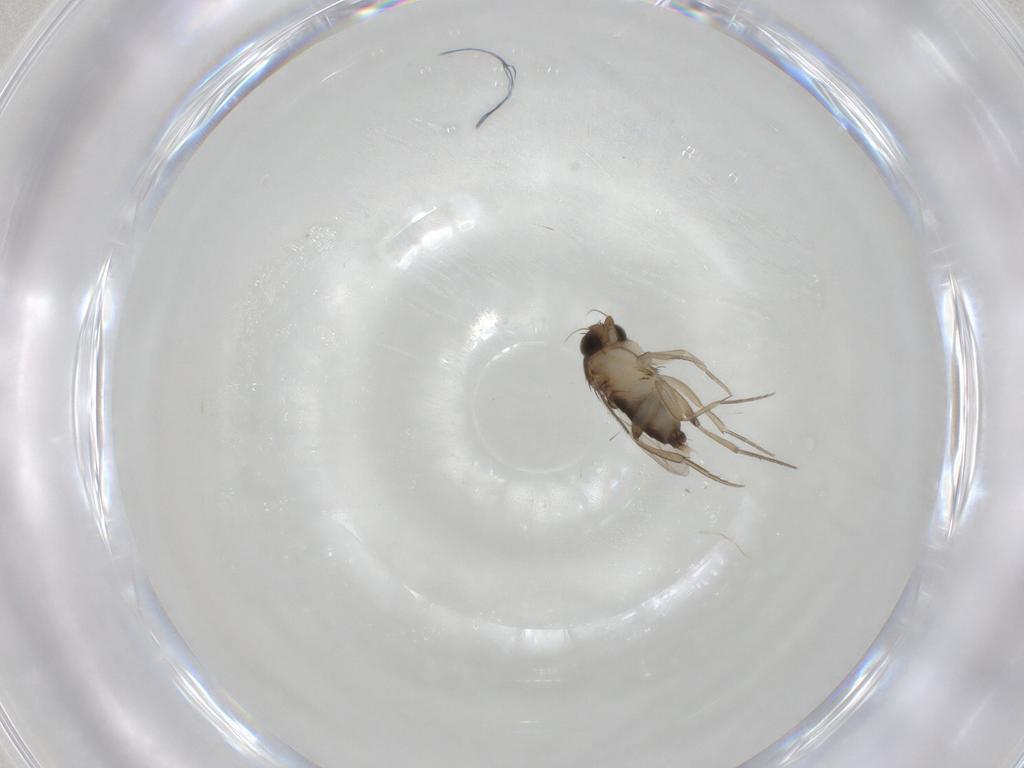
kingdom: Animalia
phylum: Arthropoda
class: Insecta
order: Diptera
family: Phoridae
